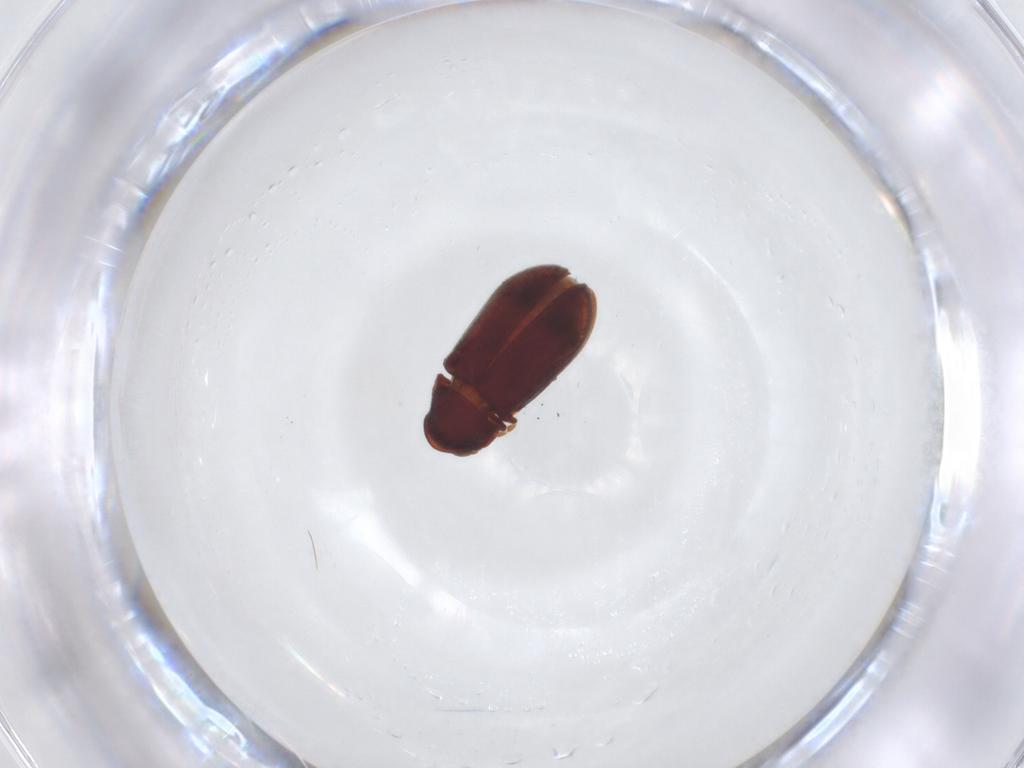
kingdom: Animalia
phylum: Arthropoda
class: Insecta
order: Coleoptera
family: Anobiidae
